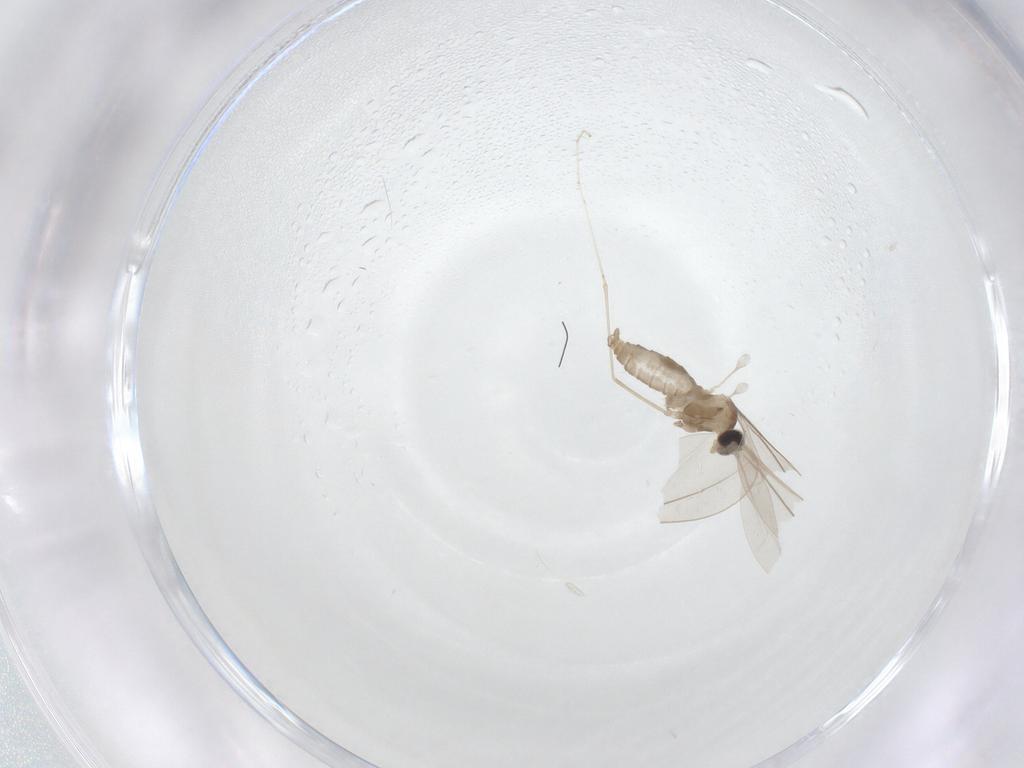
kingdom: Animalia
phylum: Arthropoda
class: Insecta
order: Diptera
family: Cecidomyiidae
